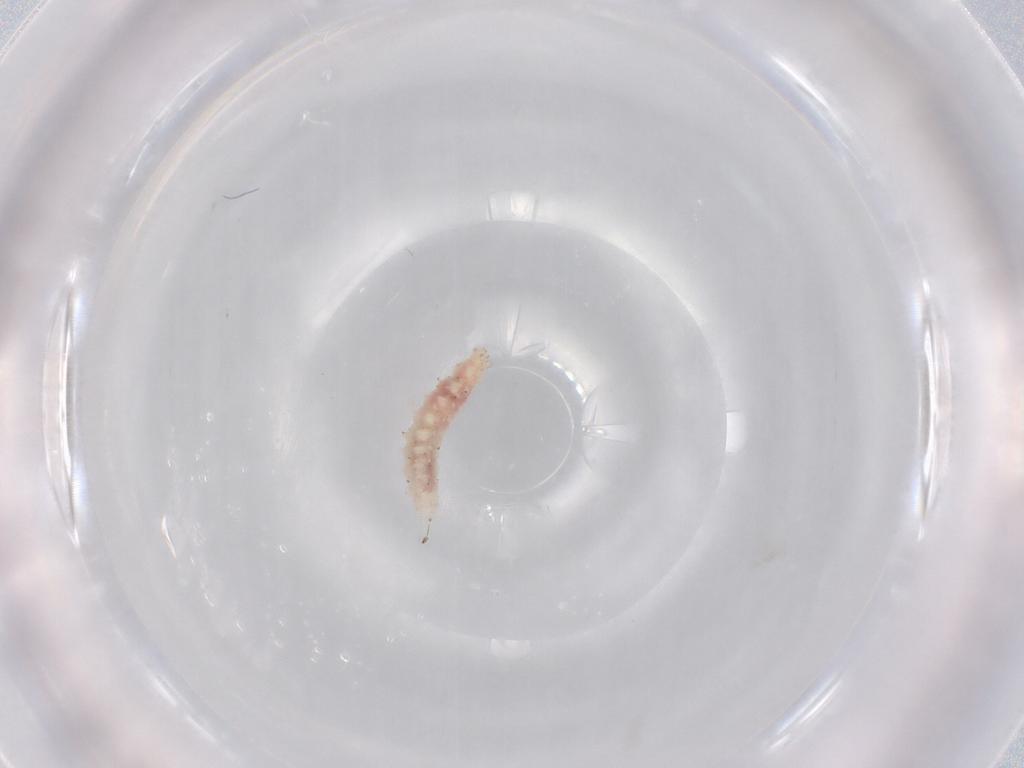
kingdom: Animalia
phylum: Arthropoda
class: Insecta
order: Diptera
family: Cecidomyiidae
